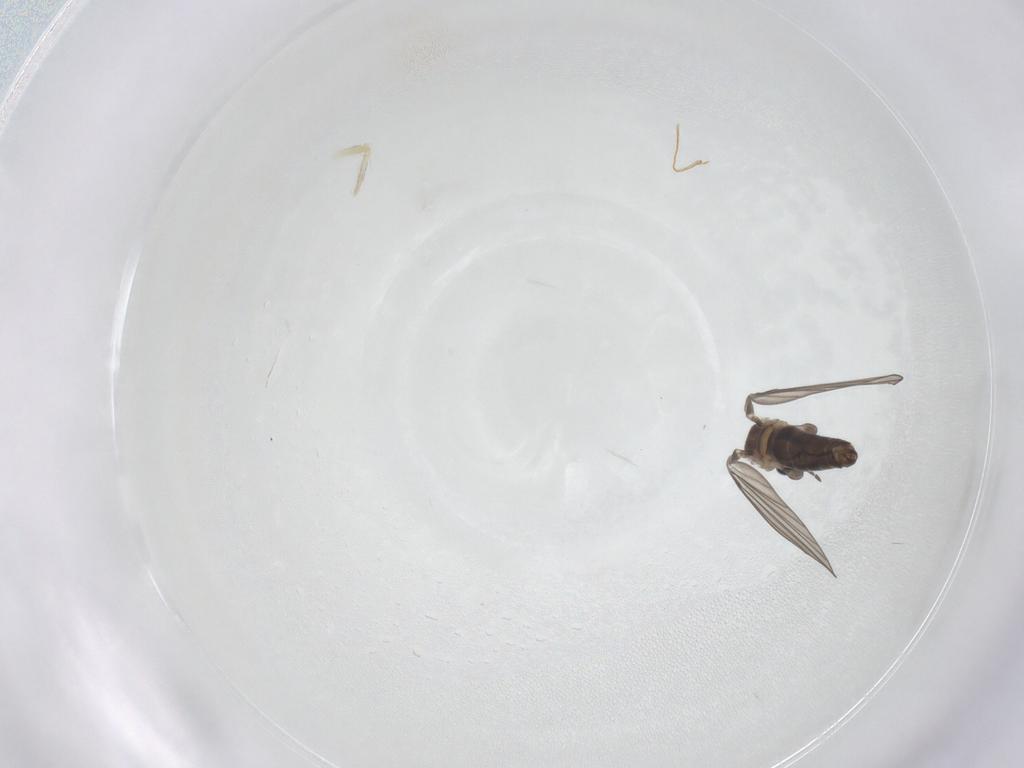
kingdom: Animalia
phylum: Arthropoda
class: Insecta
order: Diptera
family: Psychodidae
